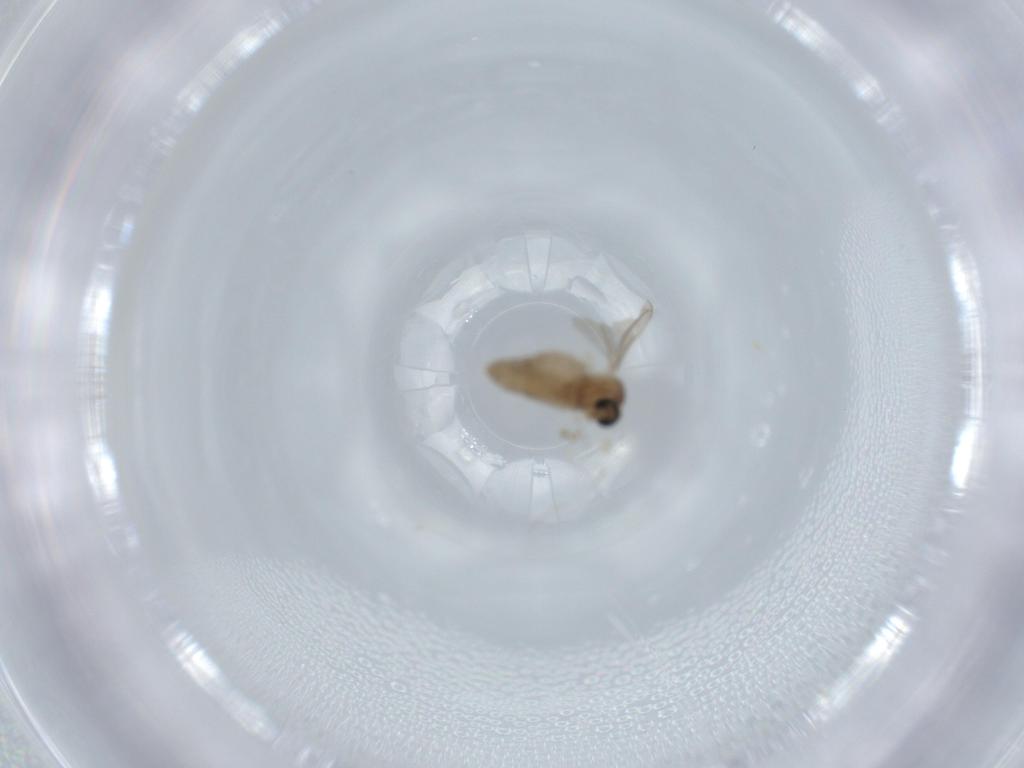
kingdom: Animalia
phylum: Arthropoda
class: Insecta
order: Diptera
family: Cecidomyiidae
